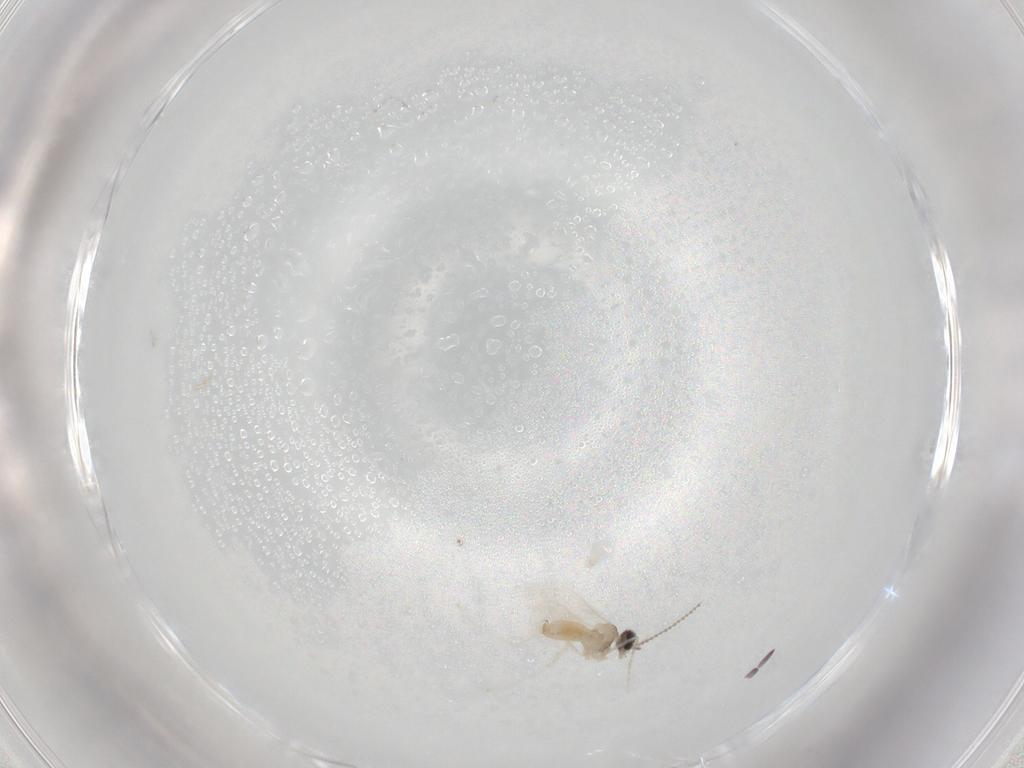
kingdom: Animalia
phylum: Arthropoda
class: Insecta
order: Diptera
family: Cecidomyiidae
